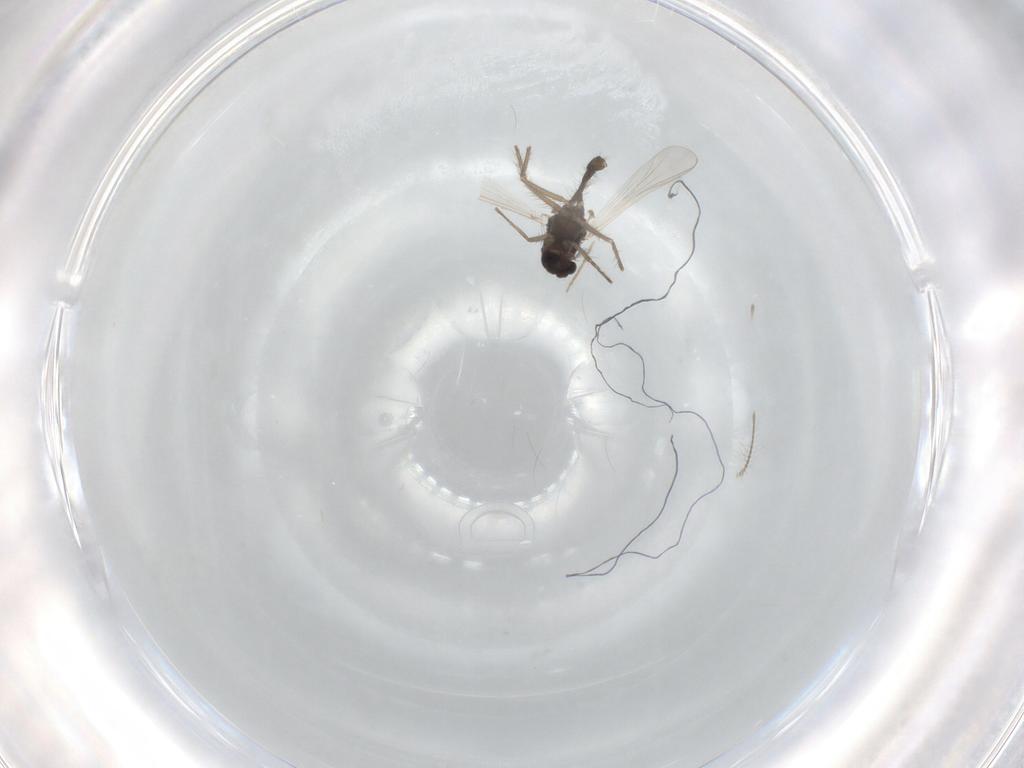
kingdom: Animalia
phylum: Arthropoda
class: Insecta
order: Diptera
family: Chironomidae
